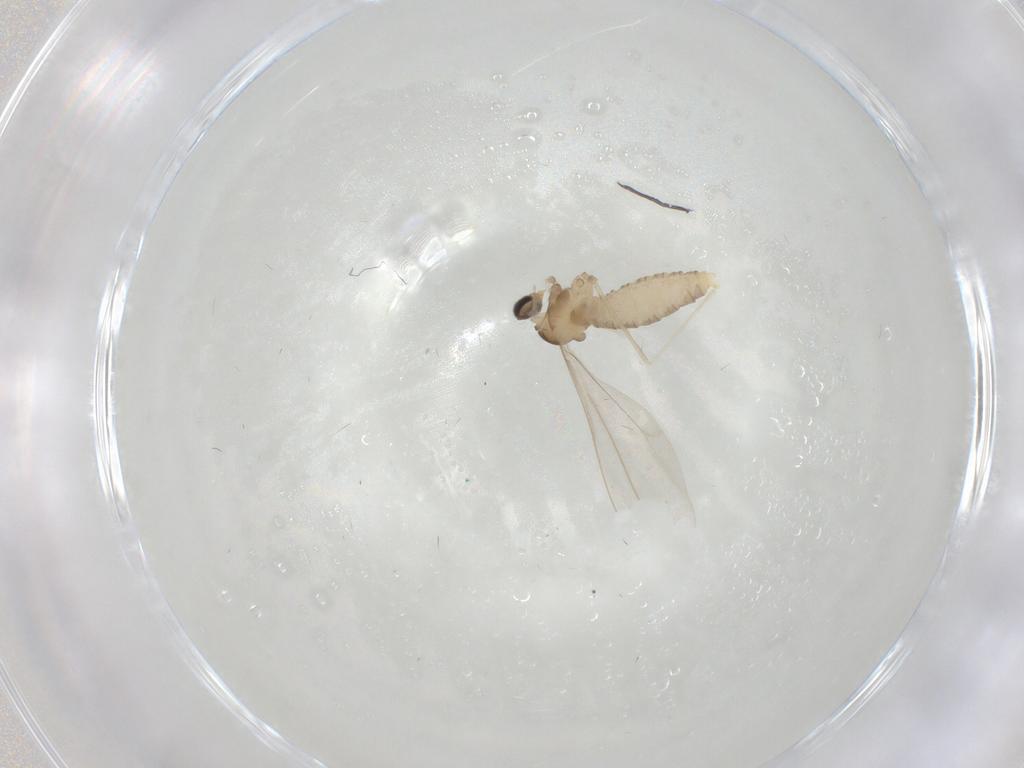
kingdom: Animalia
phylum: Arthropoda
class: Insecta
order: Diptera
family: Cecidomyiidae
